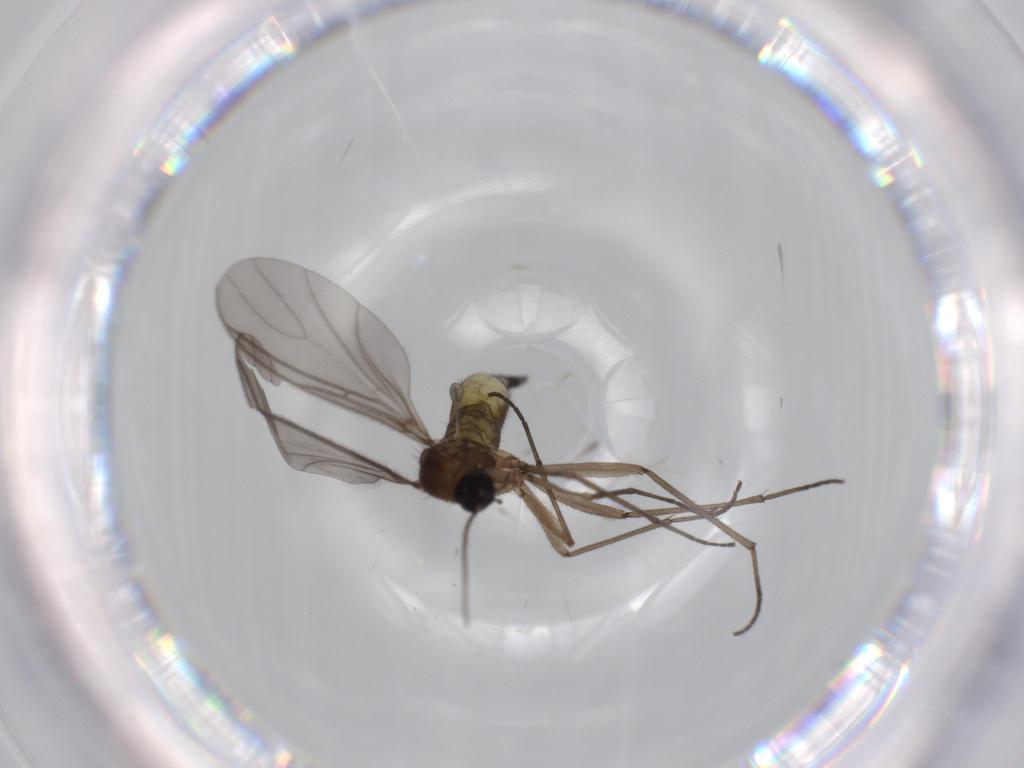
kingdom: Animalia
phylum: Arthropoda
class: Insecta
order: Diptera
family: Sciaridae
